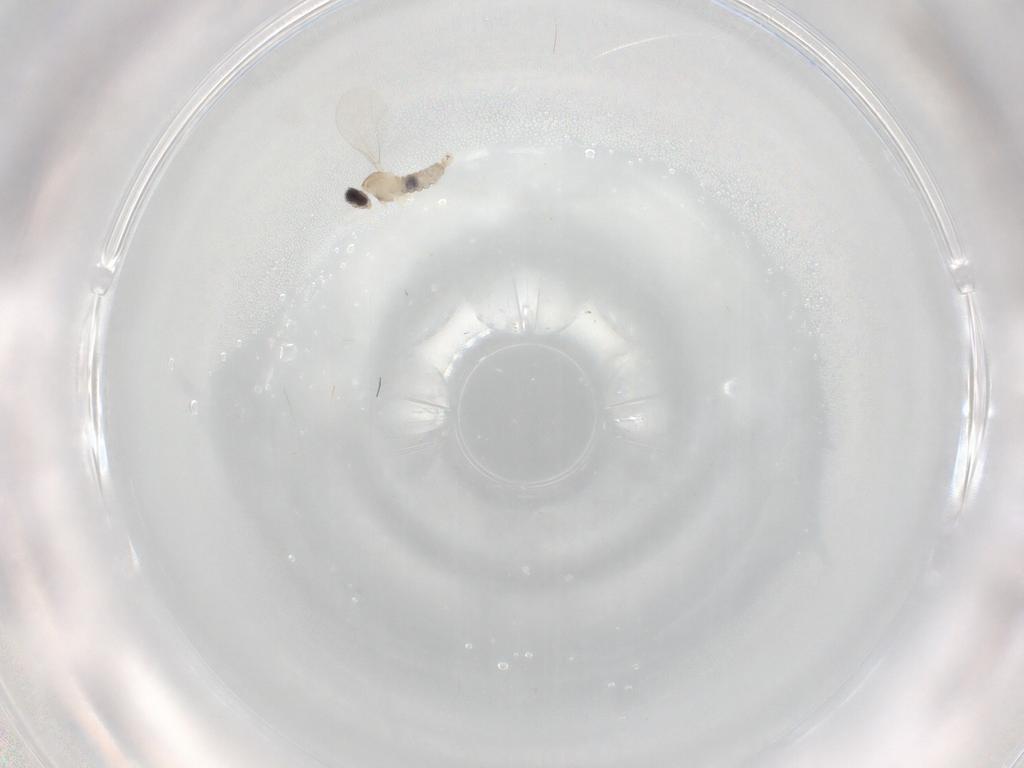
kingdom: Animalia
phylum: Arthropoda
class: Insecta
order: Diptera
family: Cecidomyiidae
